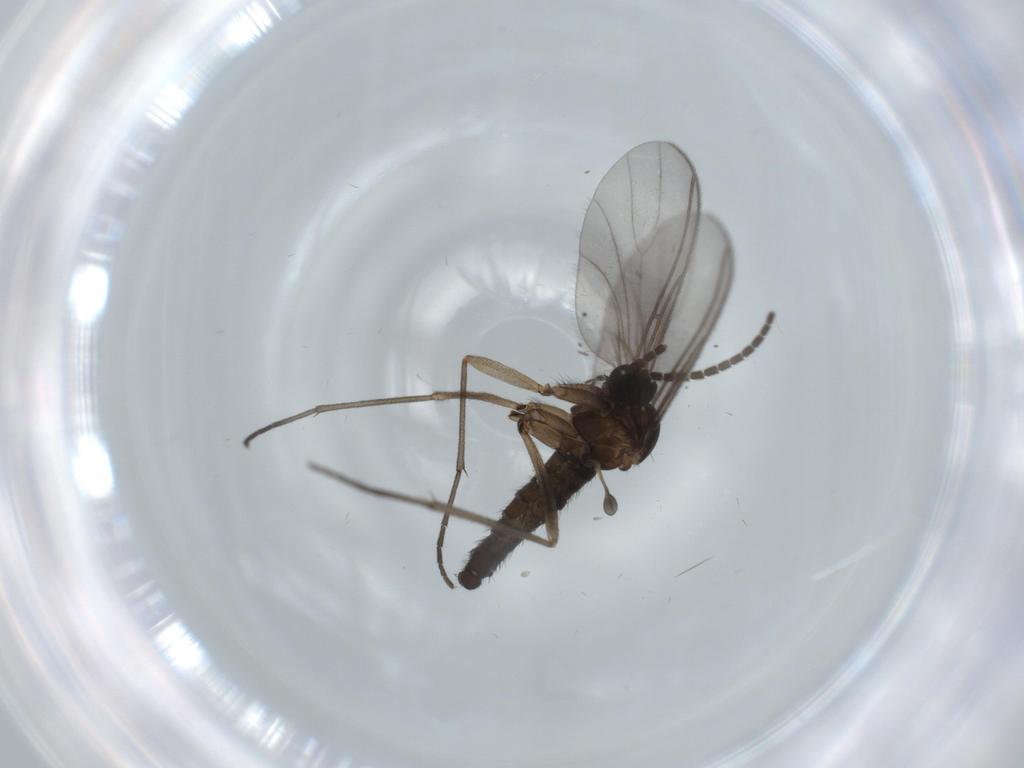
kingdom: Animalia
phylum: Arthropoda
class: Insecta
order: Diptera
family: Sciaridae
